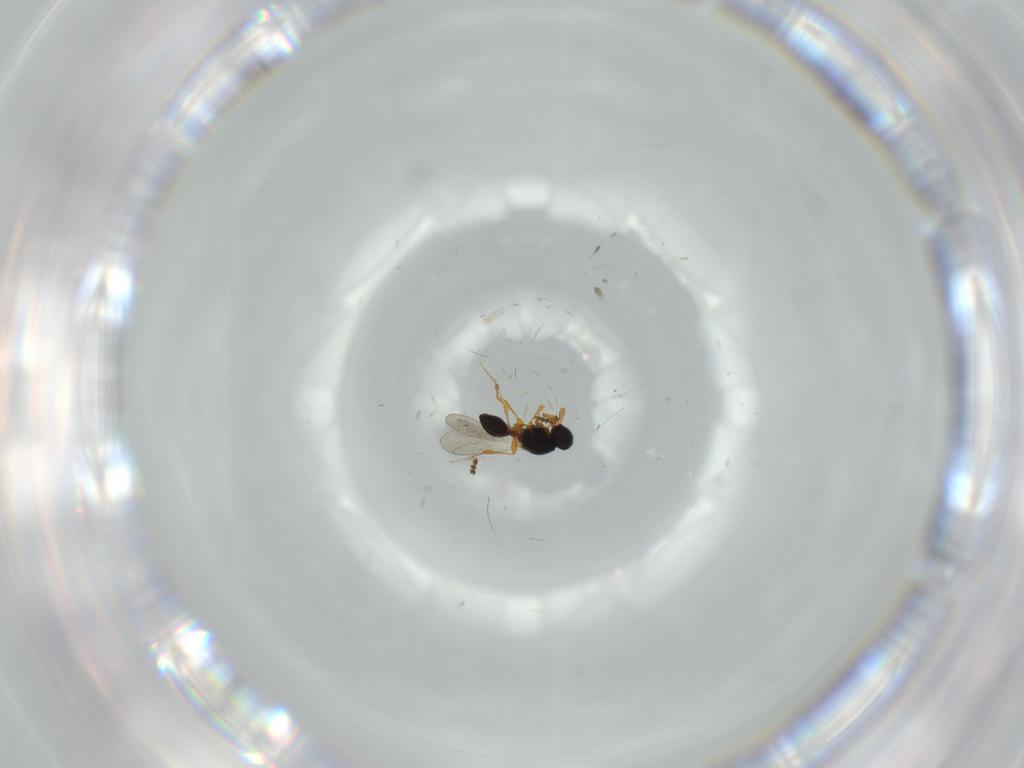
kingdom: Animalia
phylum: Arthropoda
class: Insecta
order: Hymenoptera
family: Platygastridae
